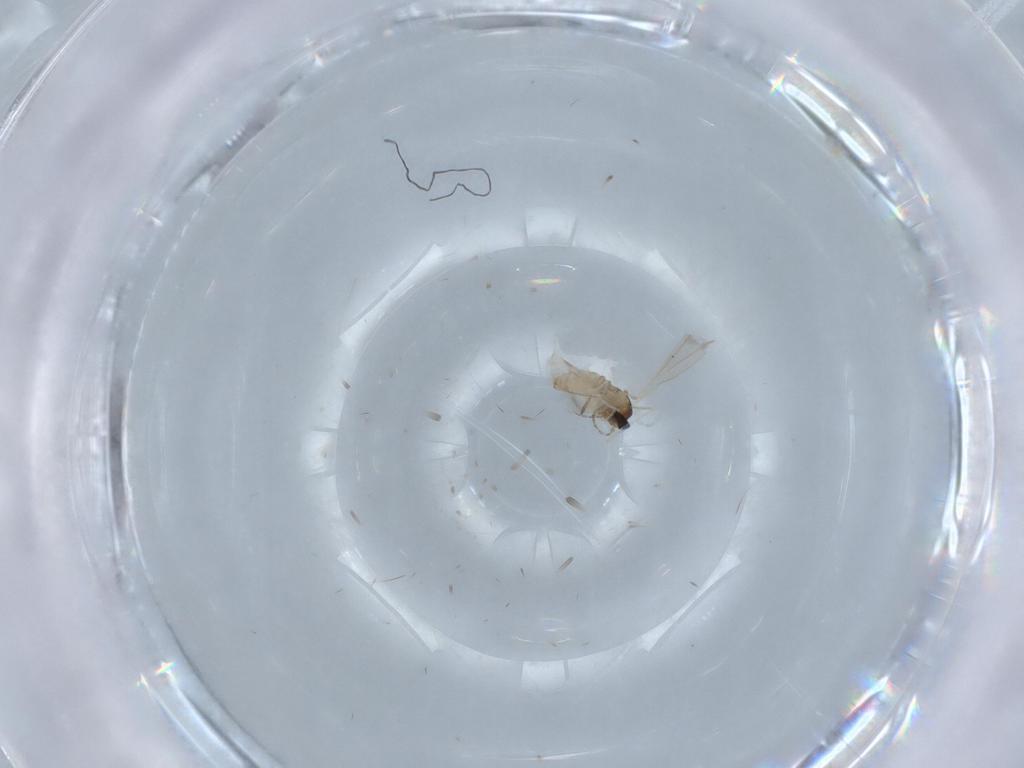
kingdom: Animalia
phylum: Arthropoda
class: Insecta
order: Diptera
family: Cecidomyiidae
